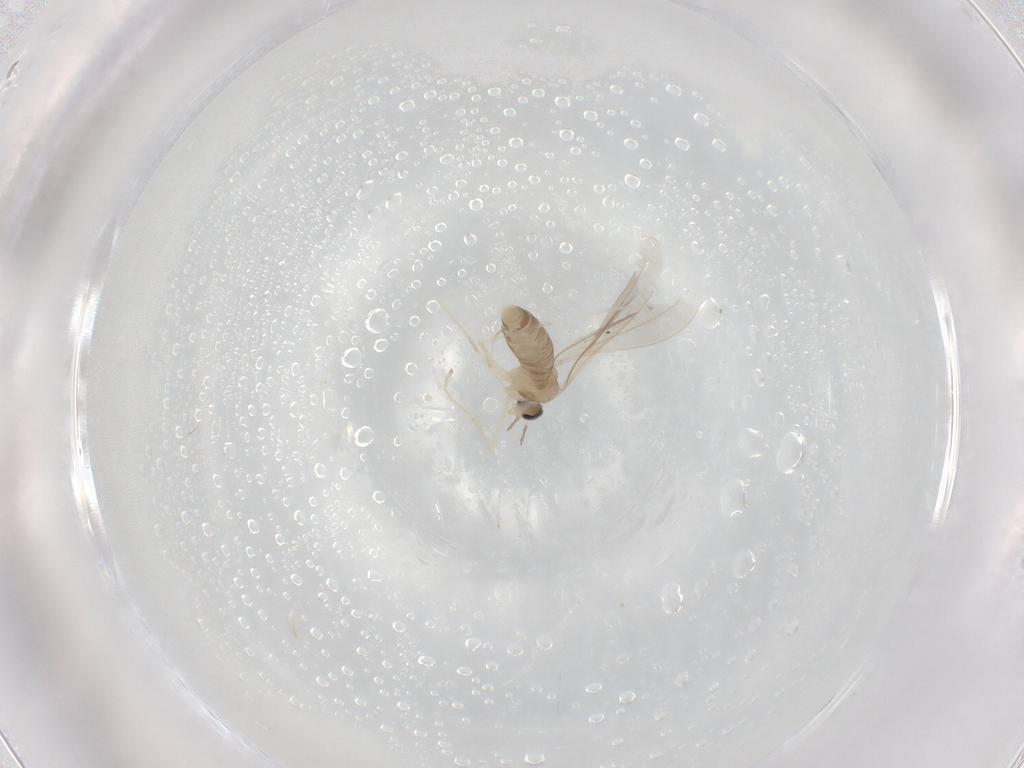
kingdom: Animalia
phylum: Arthropoda
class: Insecta
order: Diptera
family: Cecidomyiidae
